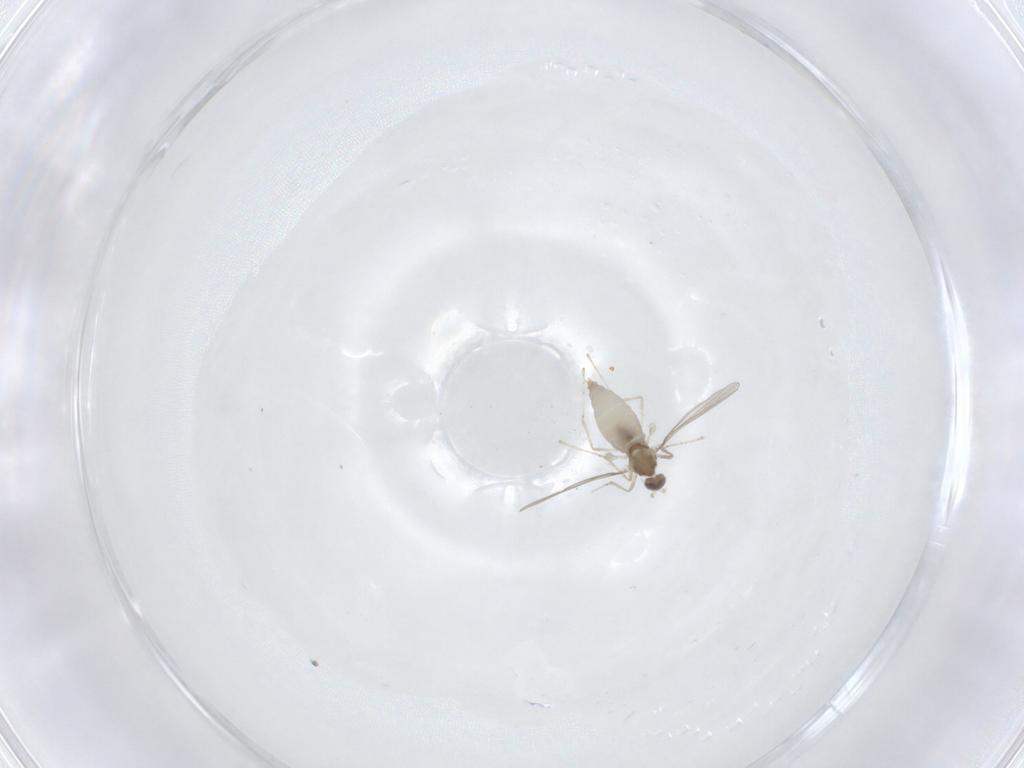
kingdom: Animalia
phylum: Arthropoda
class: Insecta
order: Diptera
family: Cecidomyiidae
